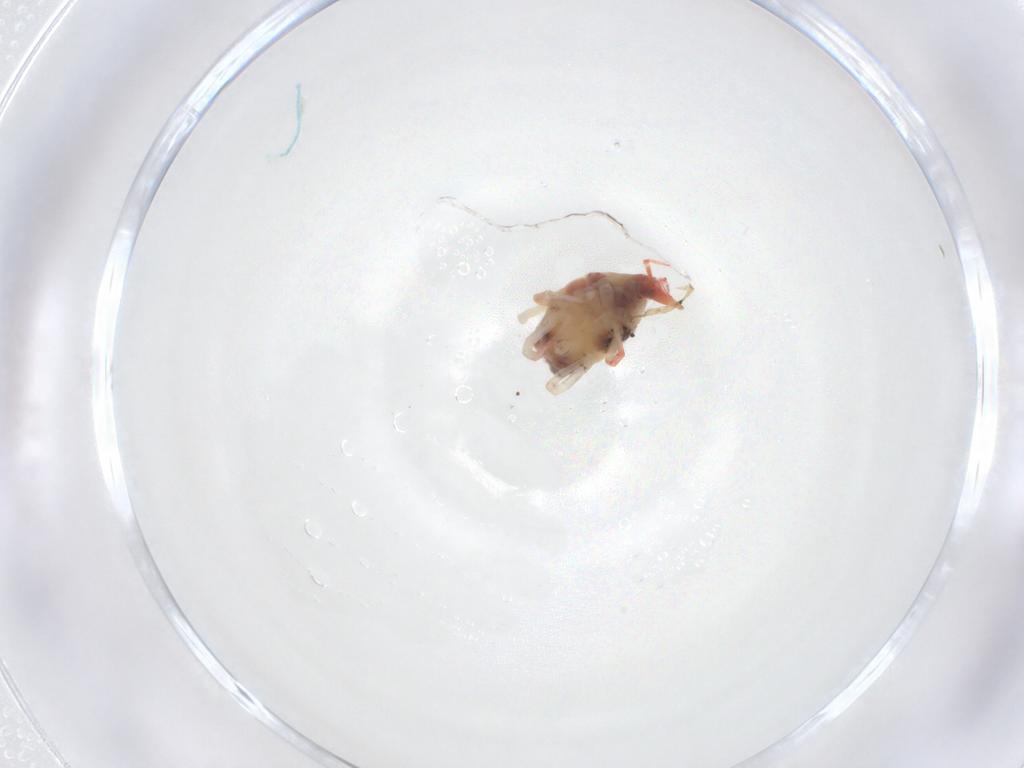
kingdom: Animalia
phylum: Arthropoda
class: Arachnida
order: Trombidiformes
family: Bdellidae
